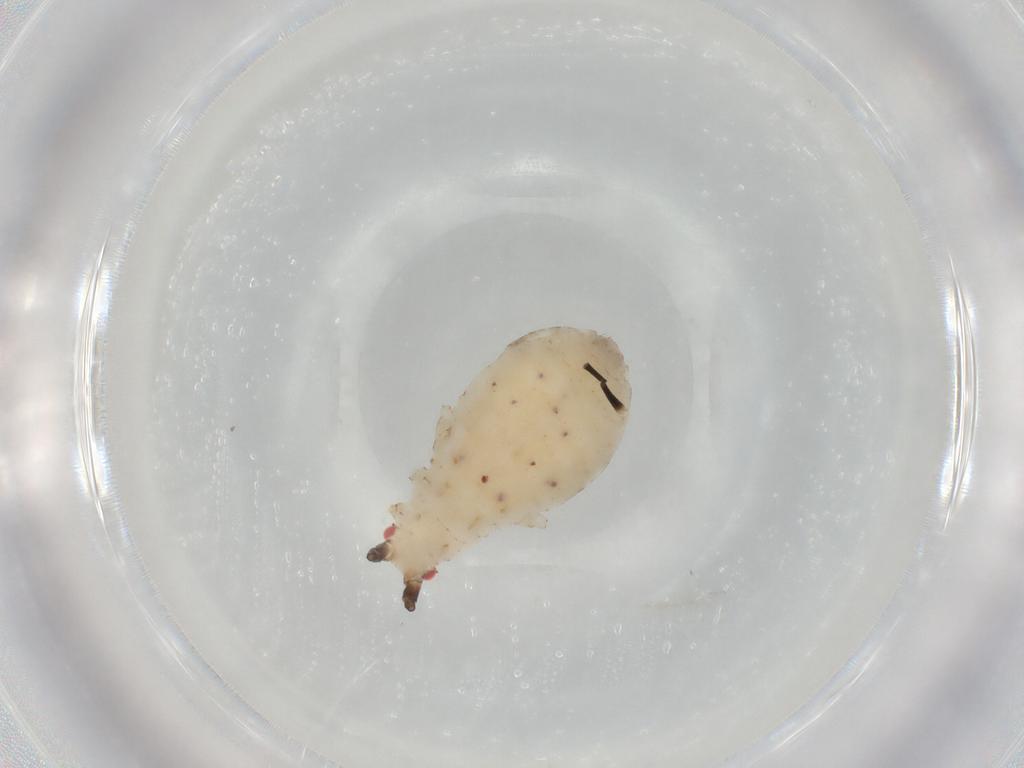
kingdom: Animalia
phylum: Arthropoda
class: Insecta
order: Hemiptera
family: Aphididae
